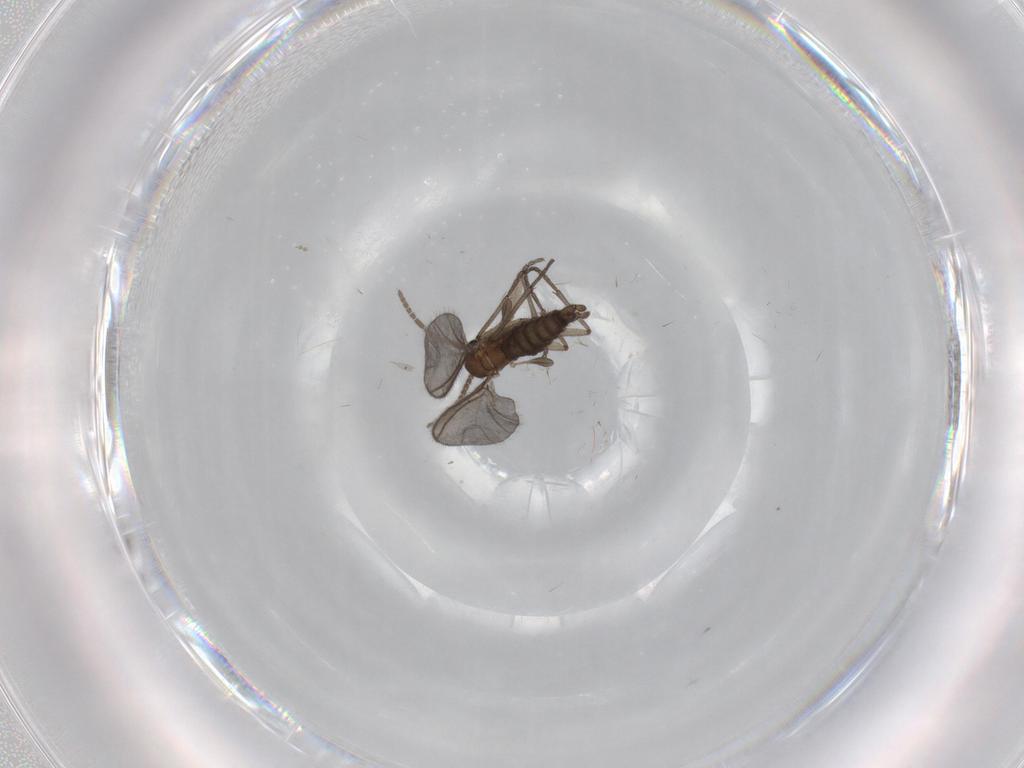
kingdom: Animalia
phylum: Arthropoda
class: Insecta
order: Diptera
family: Sciaridae
